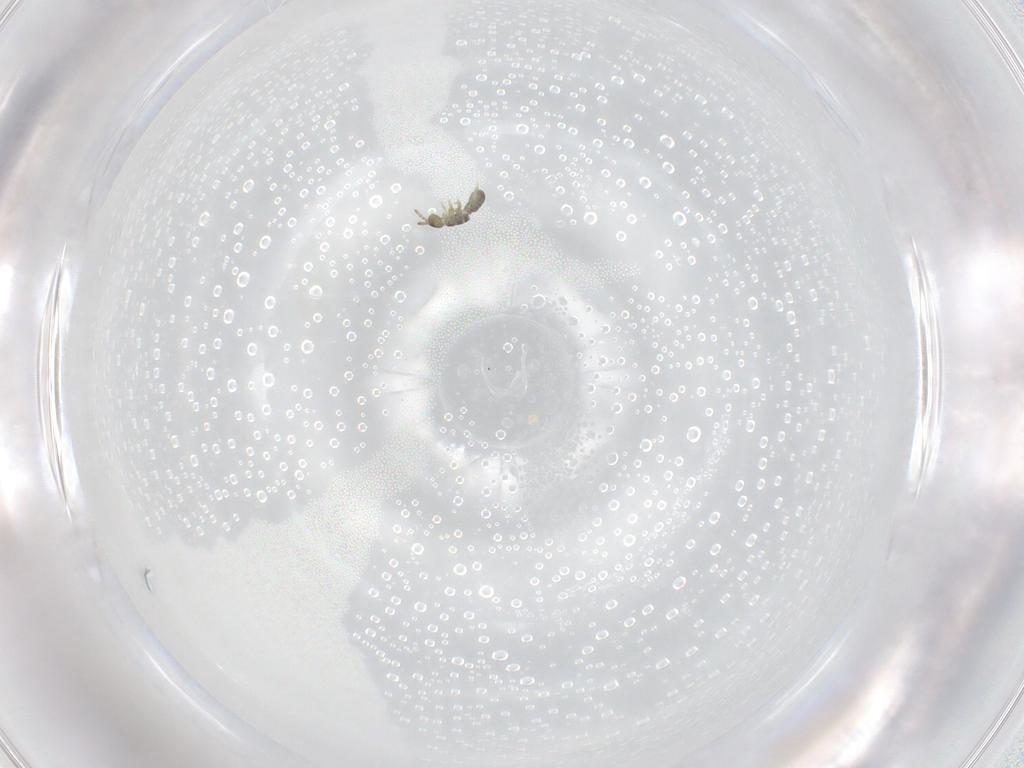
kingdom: Animalia
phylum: Arthropoda
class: Collembola
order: Entomobryomorpha
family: Isotomidae
